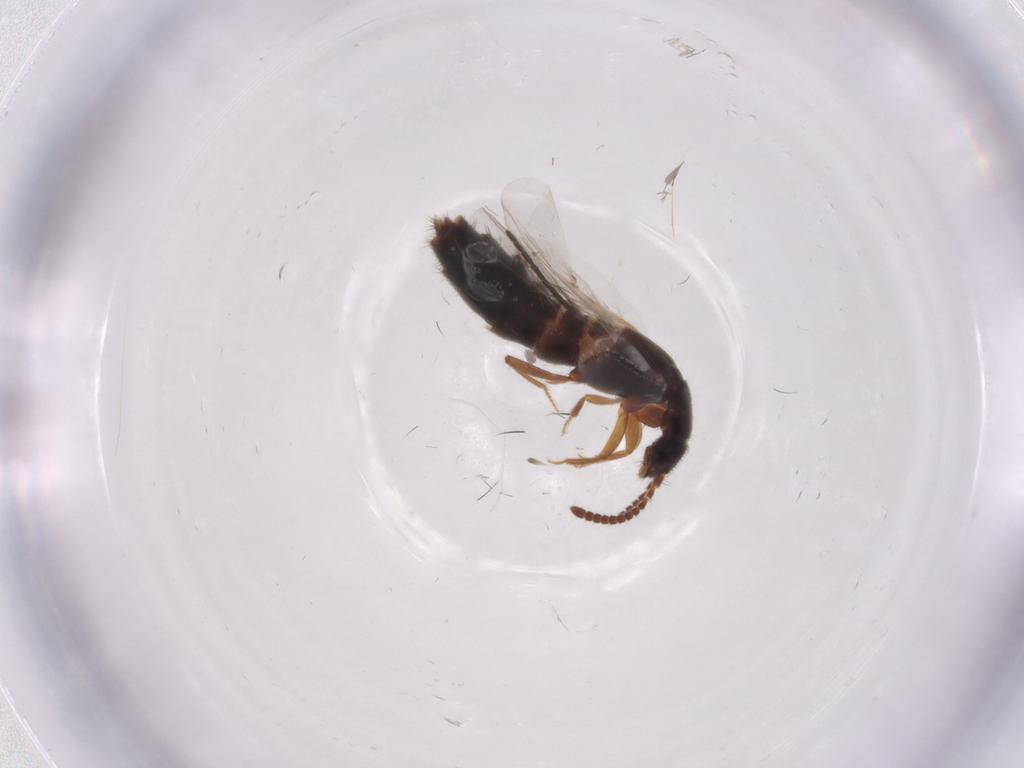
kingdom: Animalia
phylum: Arthropoda
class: Insecta
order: Coleoptera
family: Ptilodactylidae
